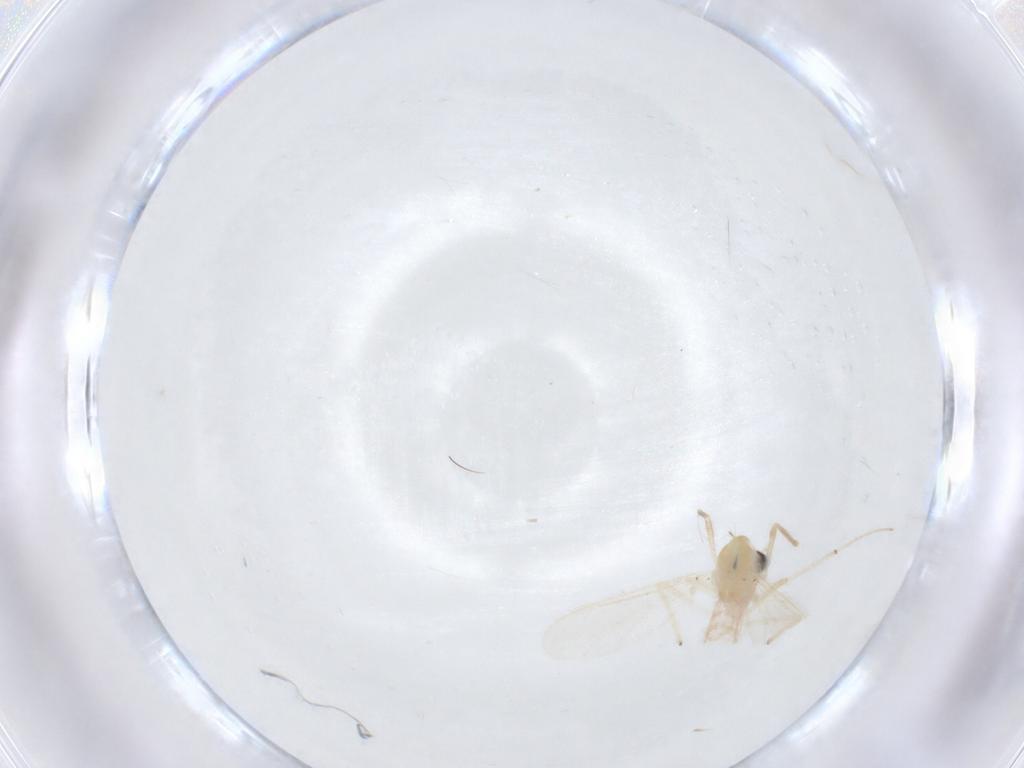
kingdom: Animalia
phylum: Arthropoda
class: Insecta
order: Diptera
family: Chironomidae
